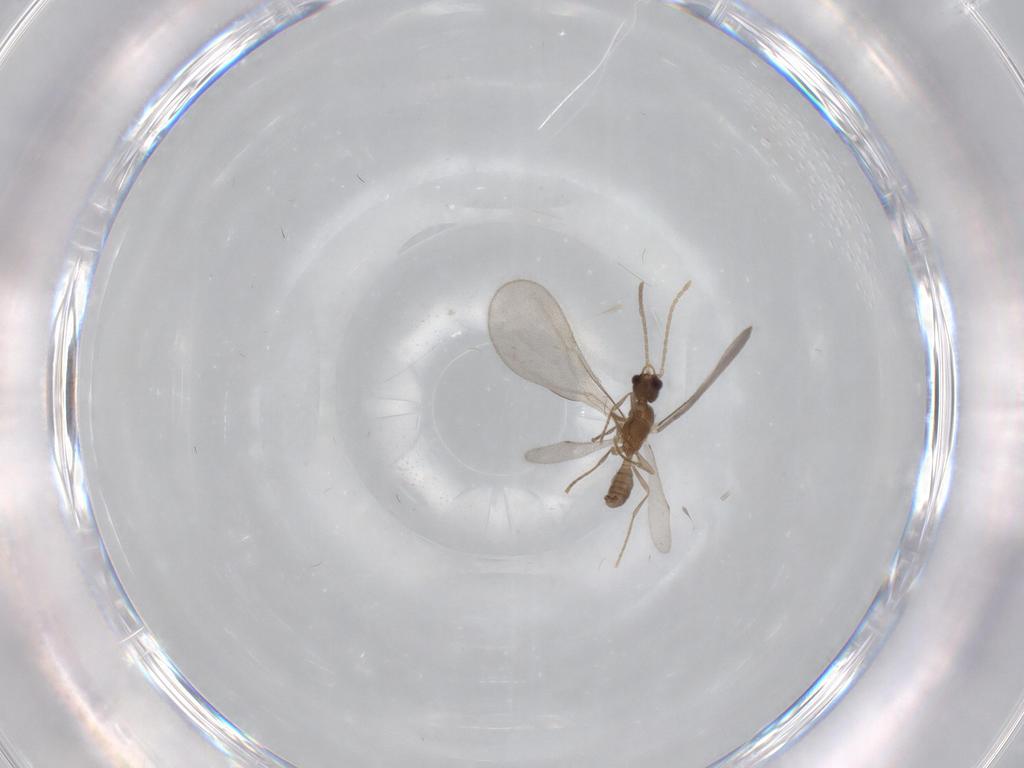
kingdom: Animalia
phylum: Arthropoda
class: Insecta
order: Hymenoptera
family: Formicidae
